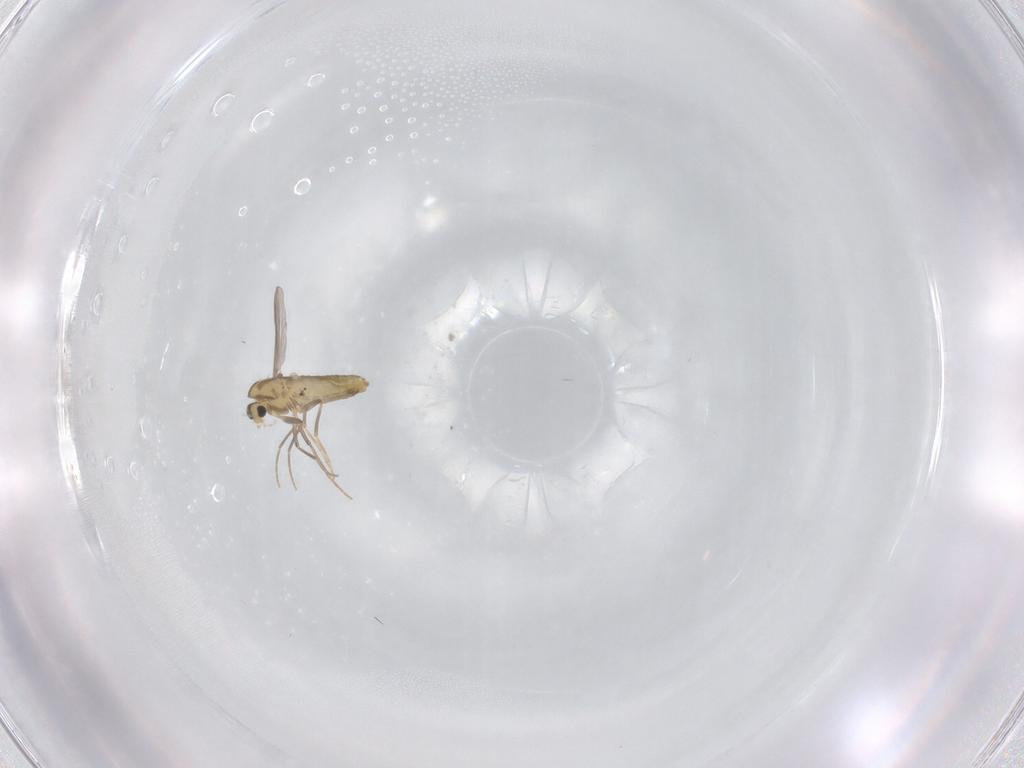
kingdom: Animalia
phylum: Arthropoda
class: Insecta
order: Diptera
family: Chironomidae
